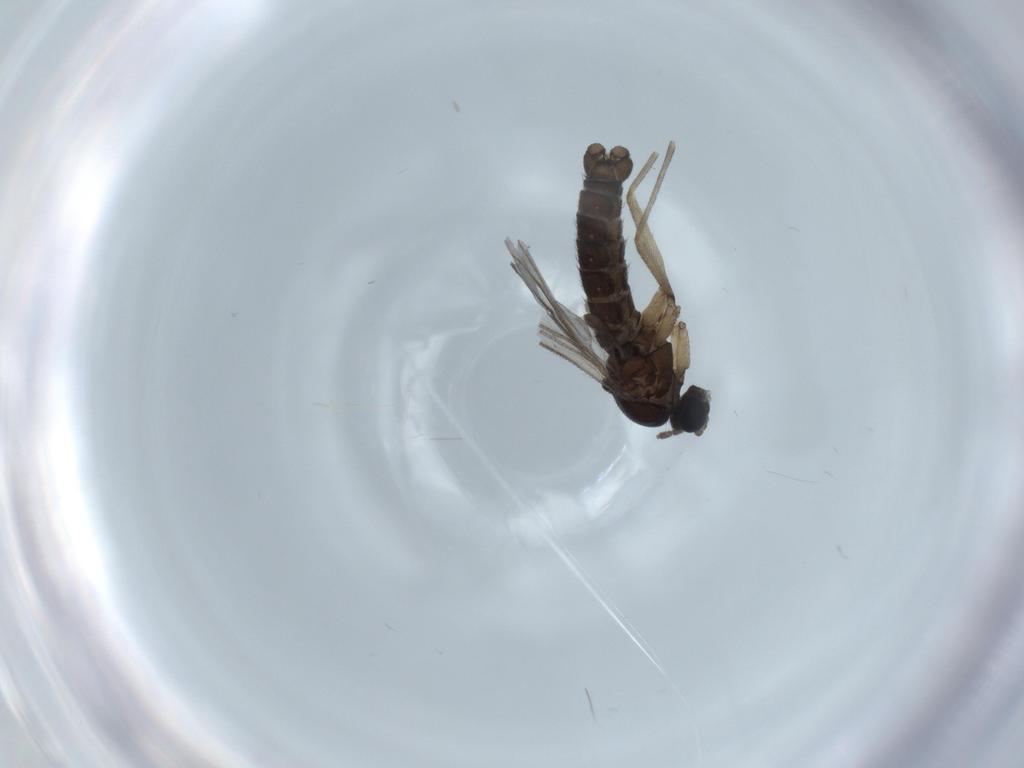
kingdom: Animalia
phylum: Arthropoda
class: Insecta
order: Diptera
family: Sciaridae
